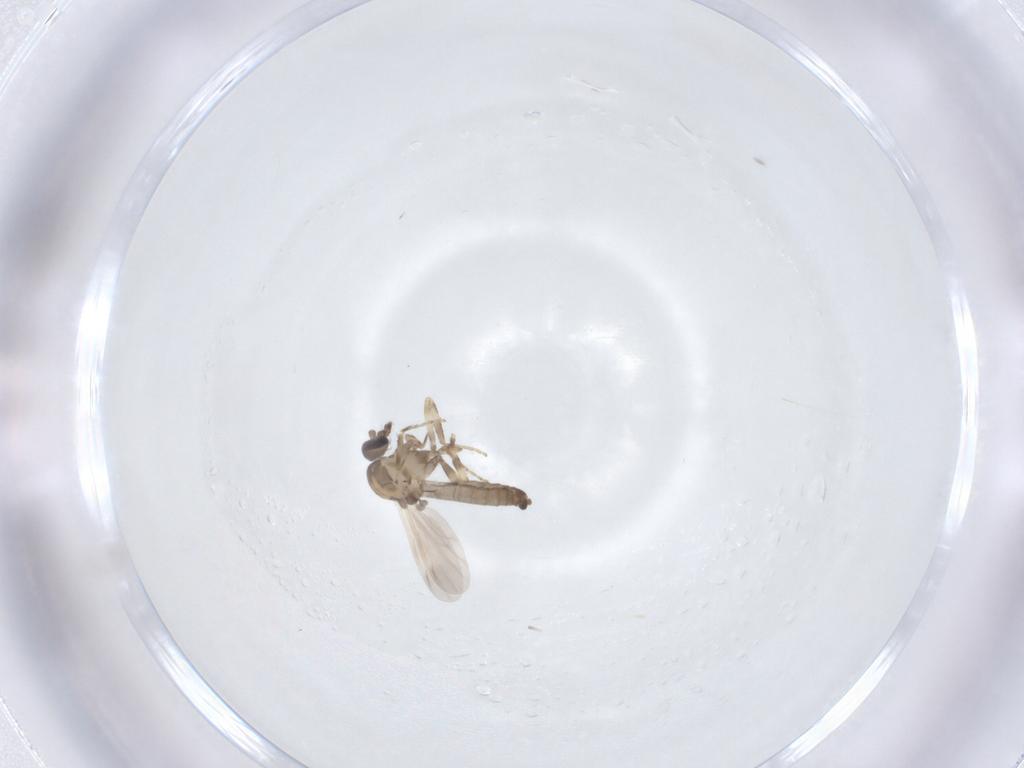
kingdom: Animalia
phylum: Arthropoda
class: Insecta
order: Diptera
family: Ceratopogonidae
